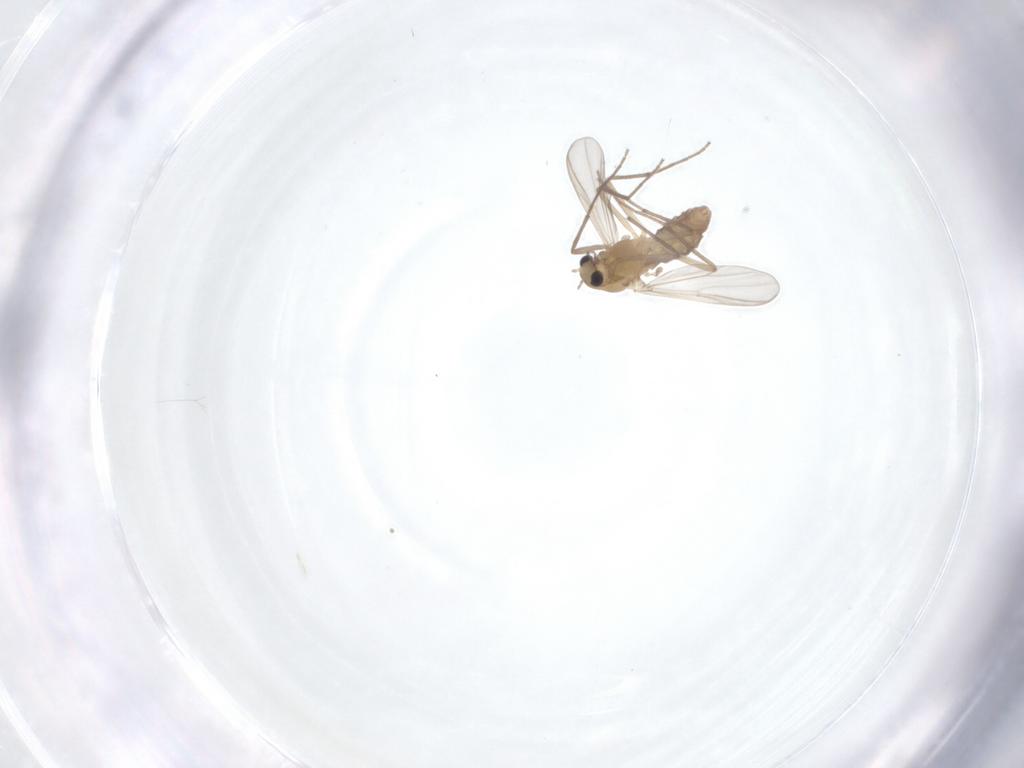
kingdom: Animalia
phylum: Arthropoda
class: Insecta
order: Diptera
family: Chironomidae
